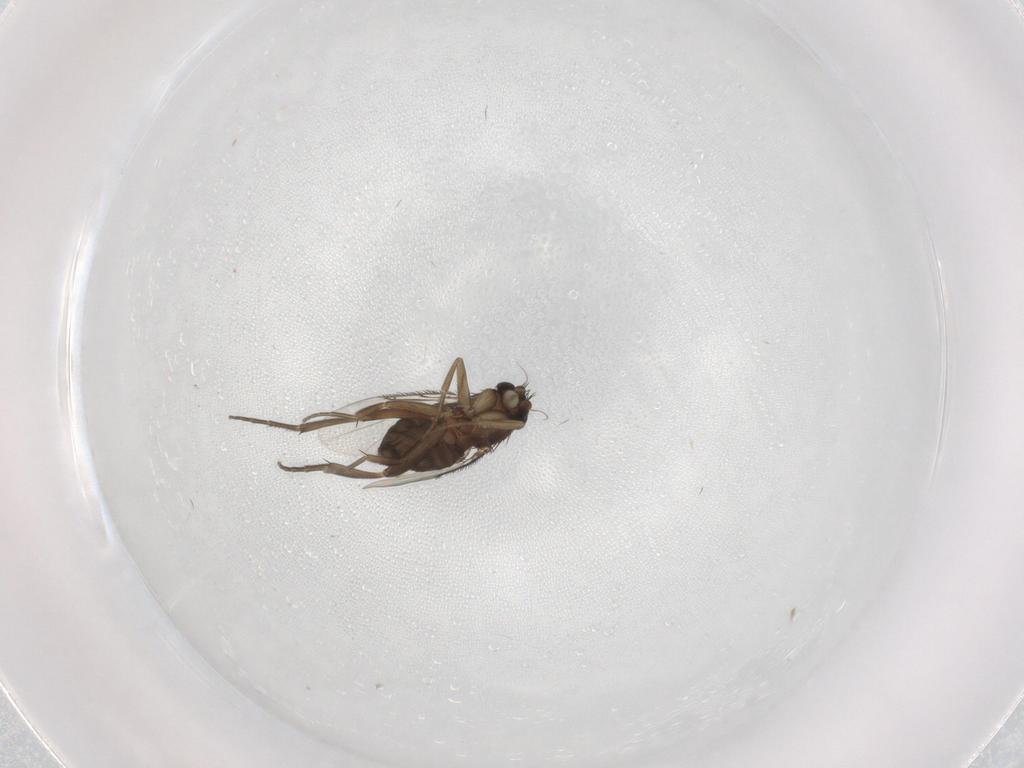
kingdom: Animalia
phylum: Arthropoda
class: Insecta
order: Diptera
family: Phoridae
